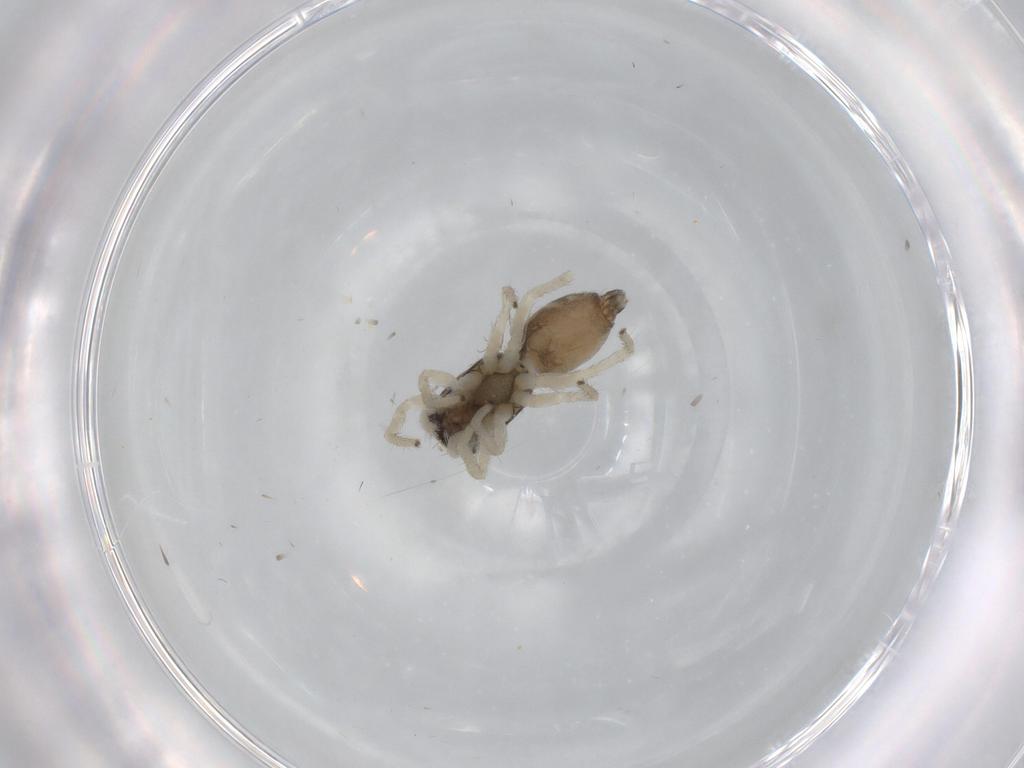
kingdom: Animalia
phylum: Arthropoda
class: Arachnida
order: Araneae
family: Salticidae
